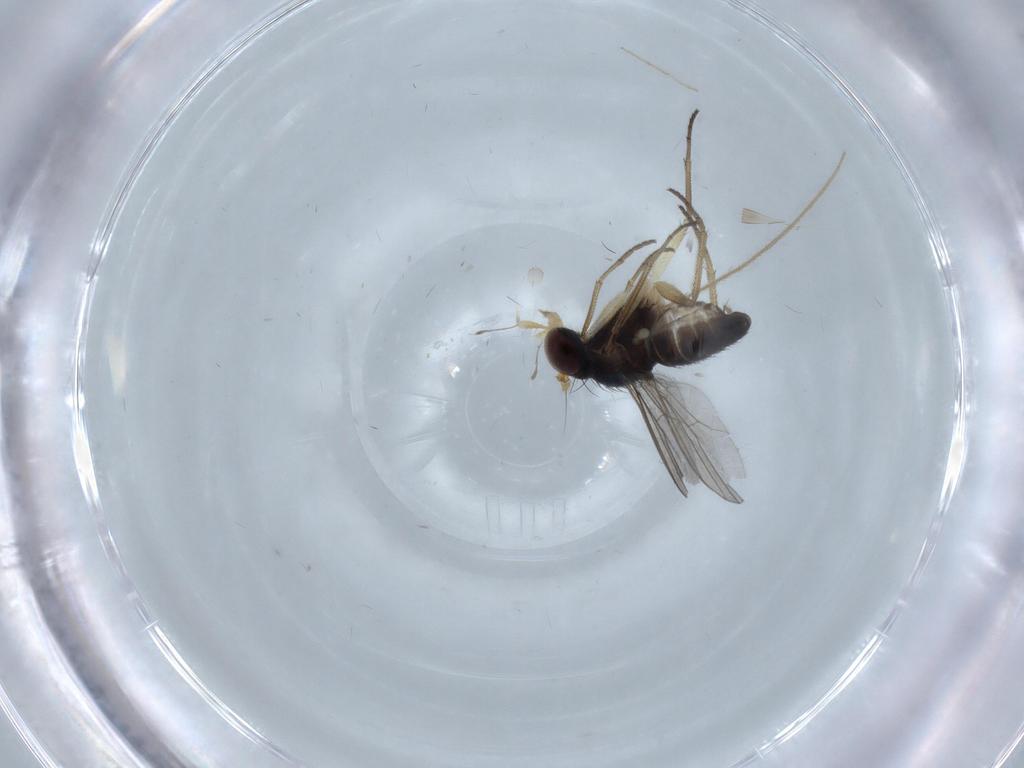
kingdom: Animalia
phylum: Arthropoda
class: Insecta
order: Diptera
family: Dolichopodidae
